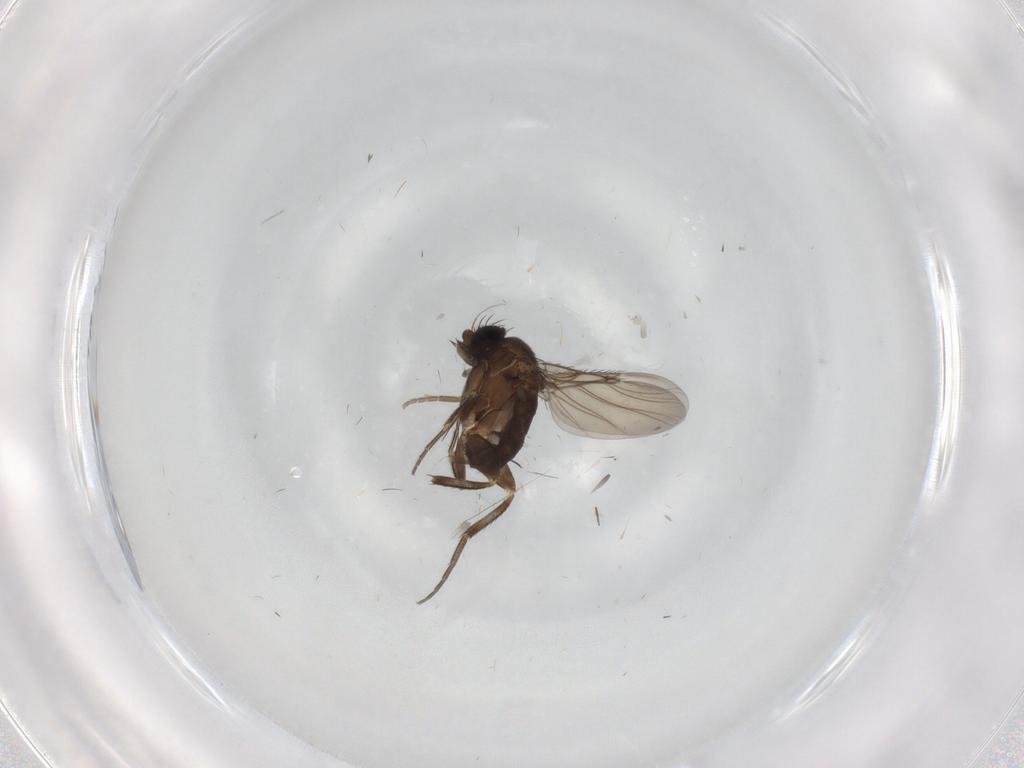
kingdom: Animalia
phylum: Arthropoda
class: Insecta
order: Diptera
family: Phoridae
